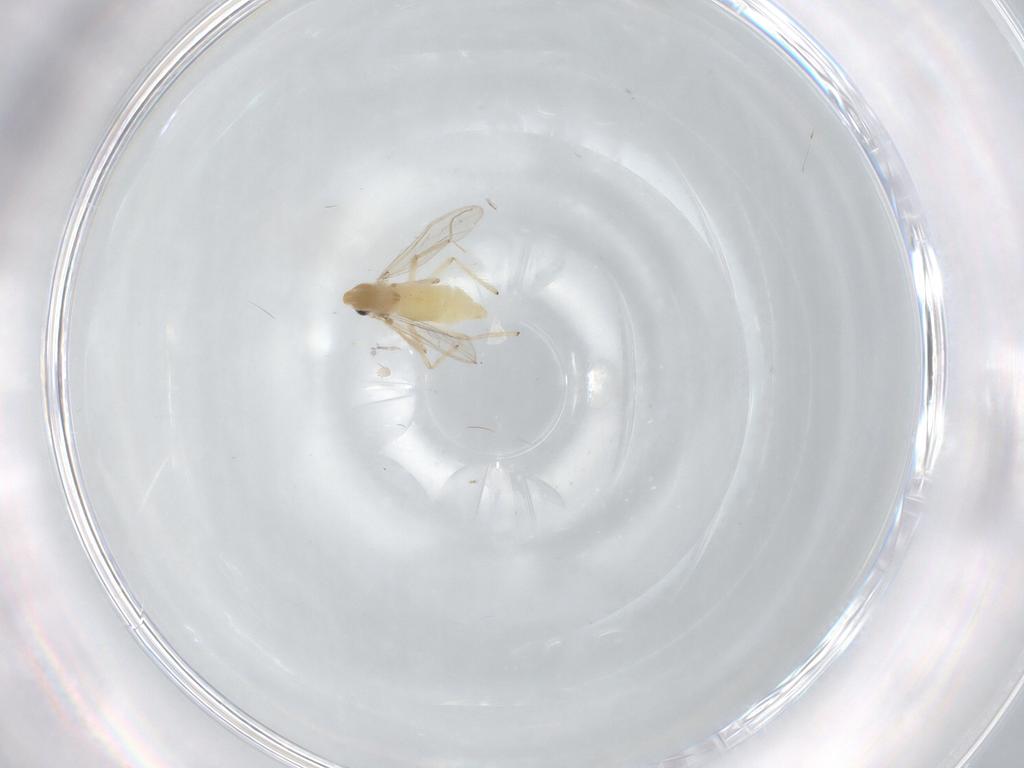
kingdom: Animalia
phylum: Arthropoda
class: Insecta
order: Diptera
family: Chironomidae
